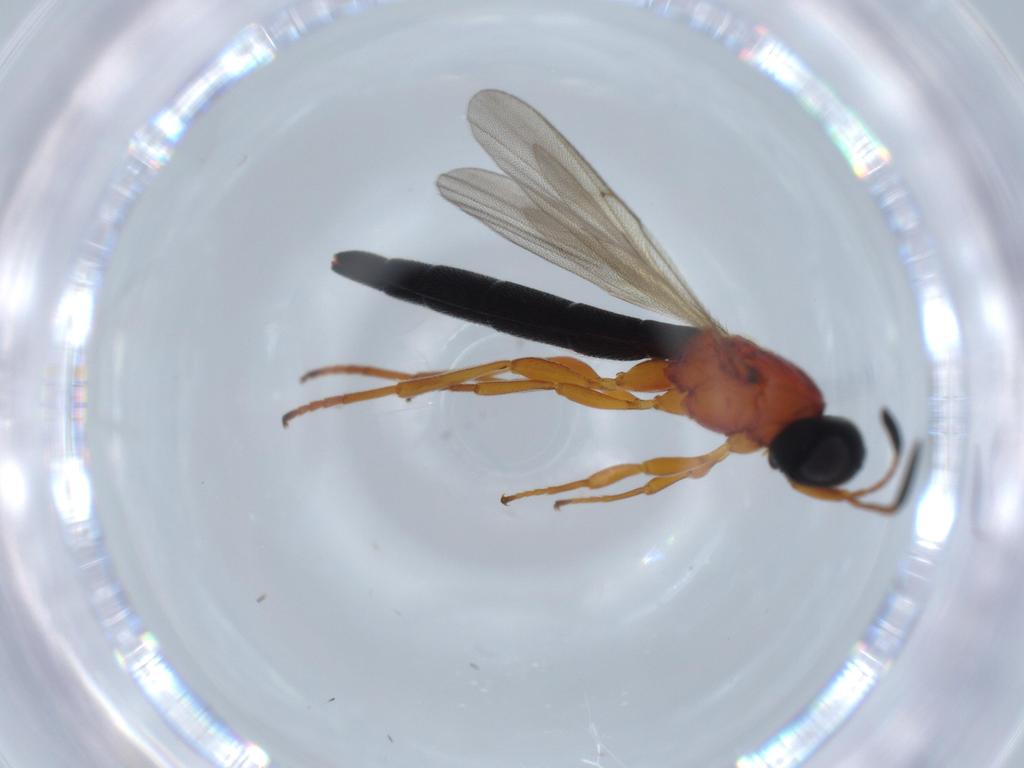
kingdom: Animalia
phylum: Arthropoda
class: Insecta
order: Hymenoptera
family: Scelionidae
